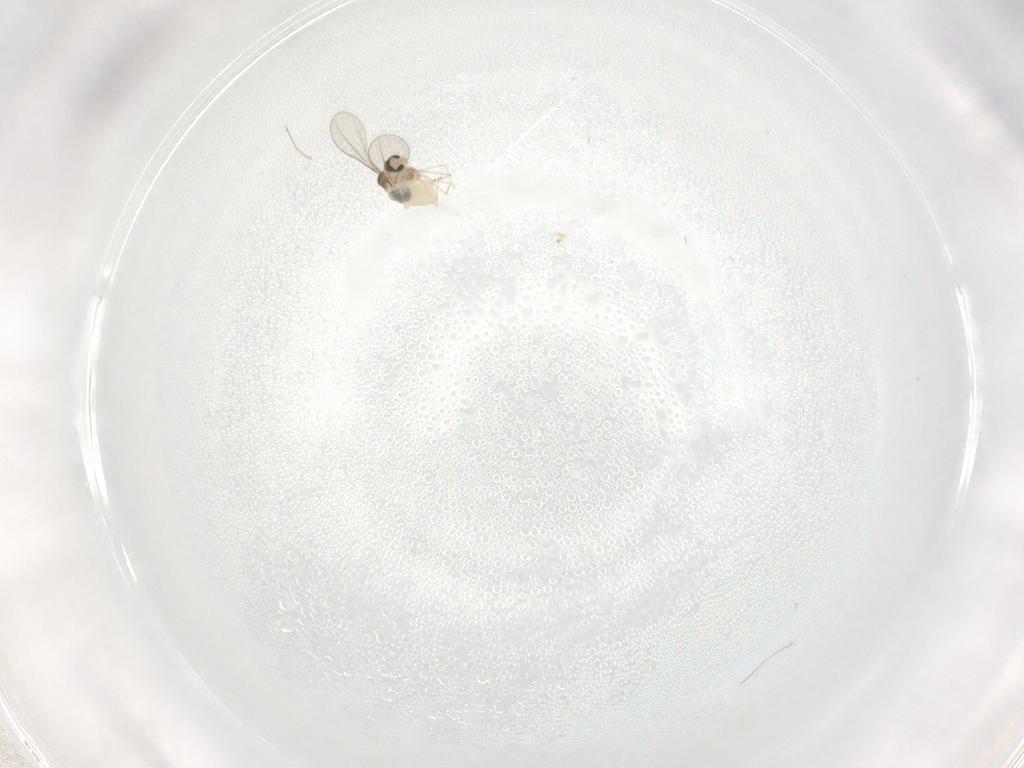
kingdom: Animalia
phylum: Arthropoda
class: Insecta
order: Diptera
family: Cecidomyiidae
